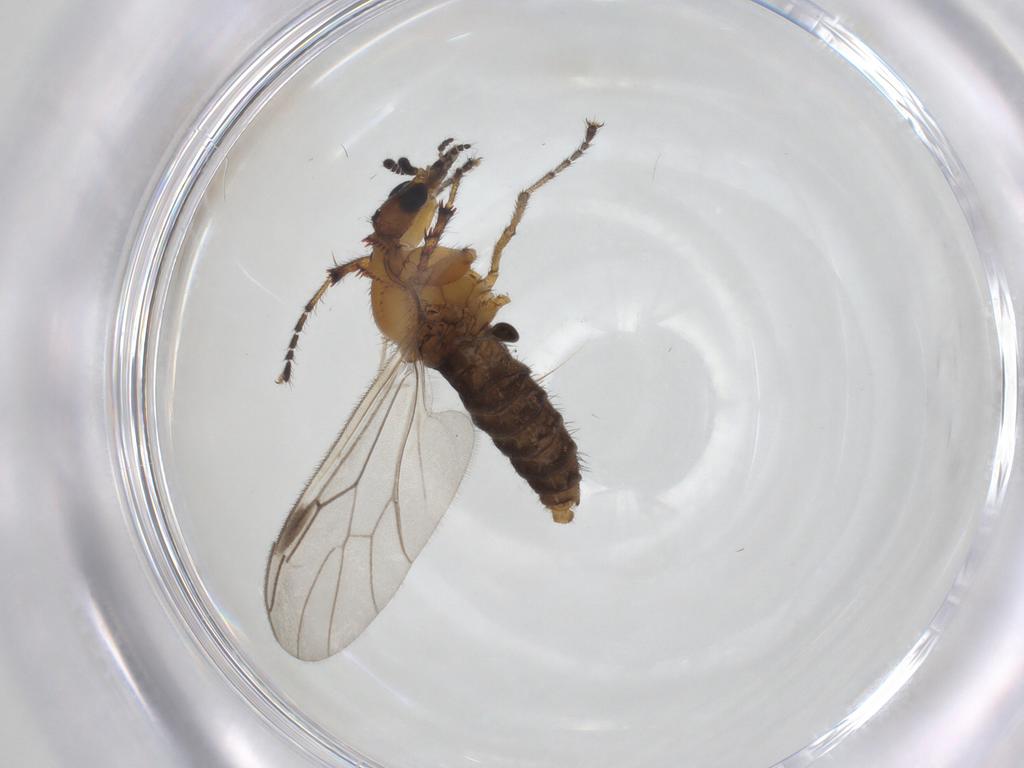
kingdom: Animalia
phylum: Arthropoda
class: Insecta
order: Diptera
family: Bibionidae
